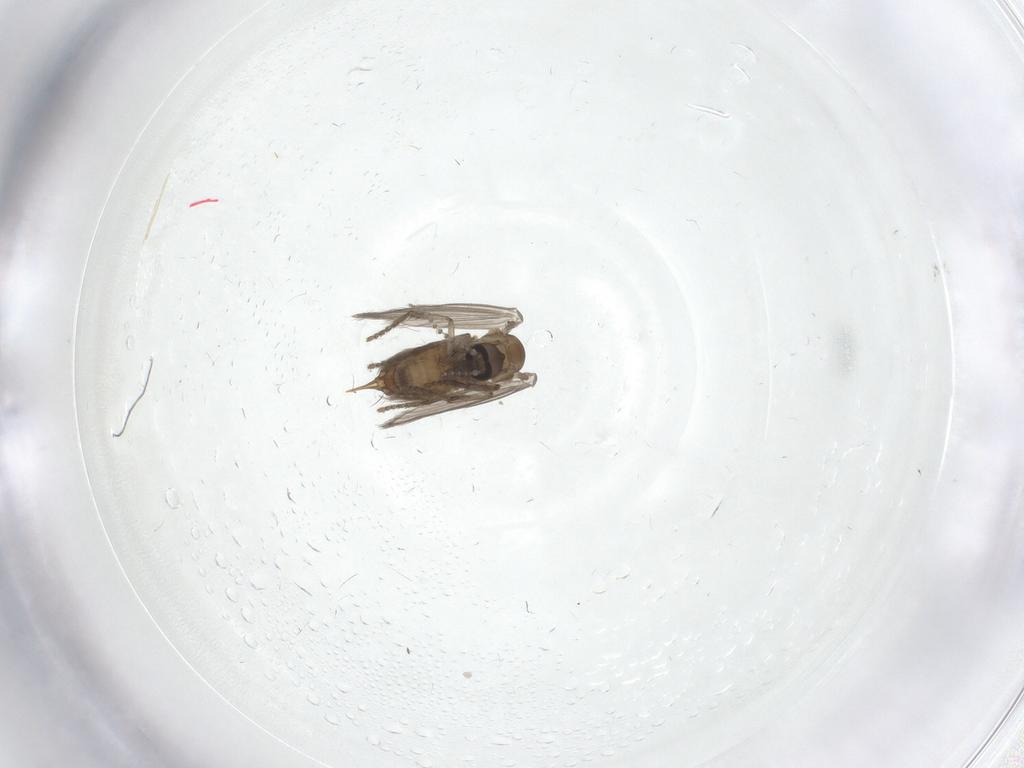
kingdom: Animalia
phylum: Arthropoda
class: Insecta
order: Diptera
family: Psychodidae
